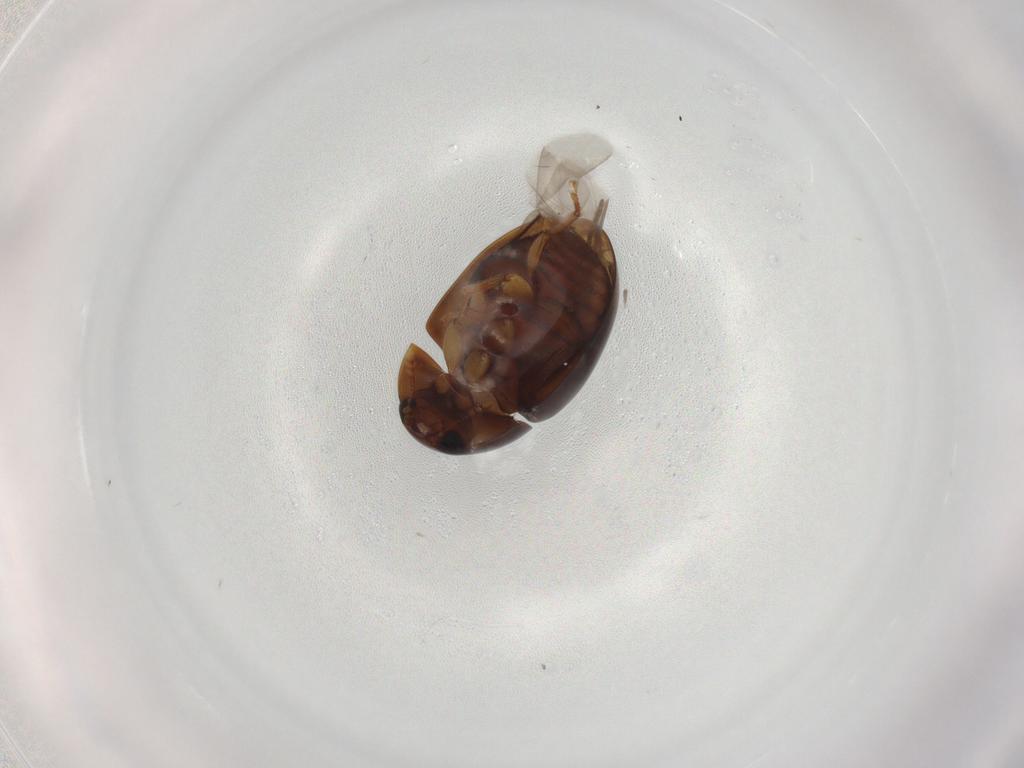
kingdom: Animalia
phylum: Arthropoda
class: Insecta
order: Coleoptera
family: Phalacridae
